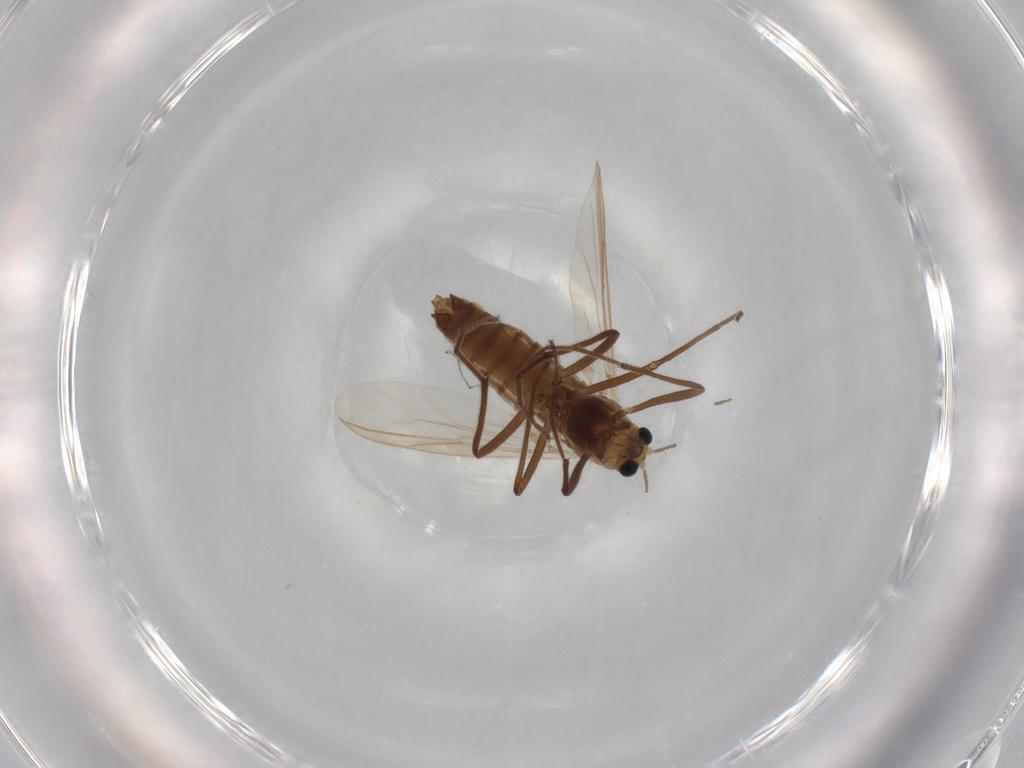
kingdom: Animalia
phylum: Arthropoda
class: Insecta
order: Diptera
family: Chironomidae
